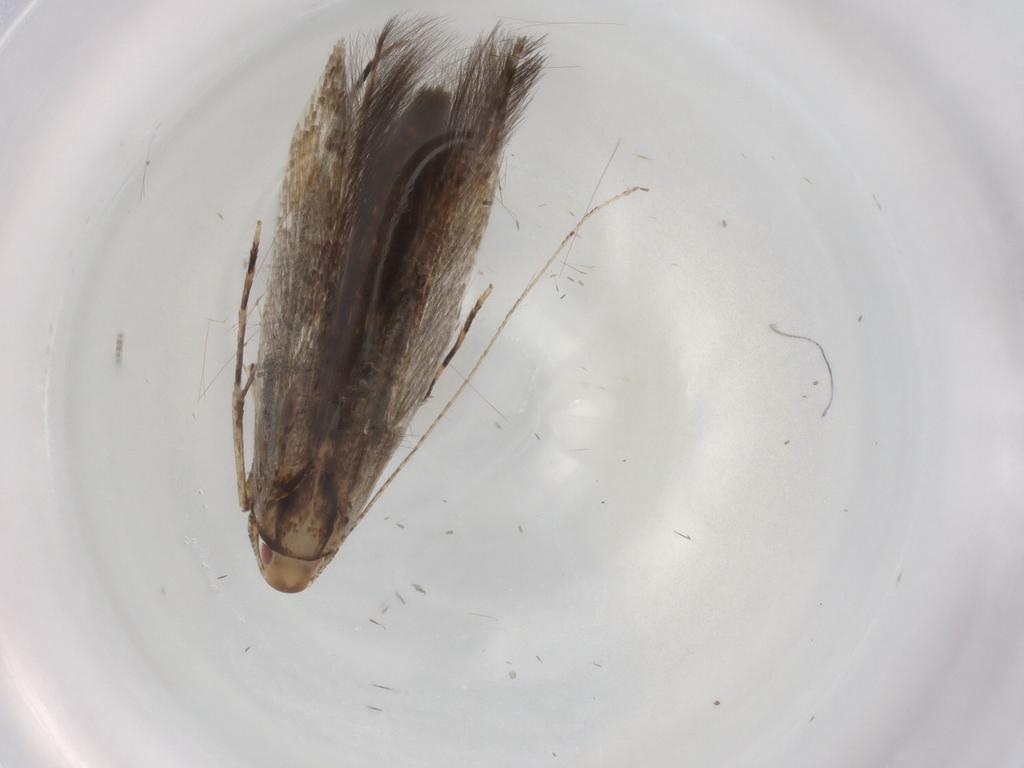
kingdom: Animalia
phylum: Arthropoda
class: Insecta
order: Lepidoptera
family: Cosmopterigidae
